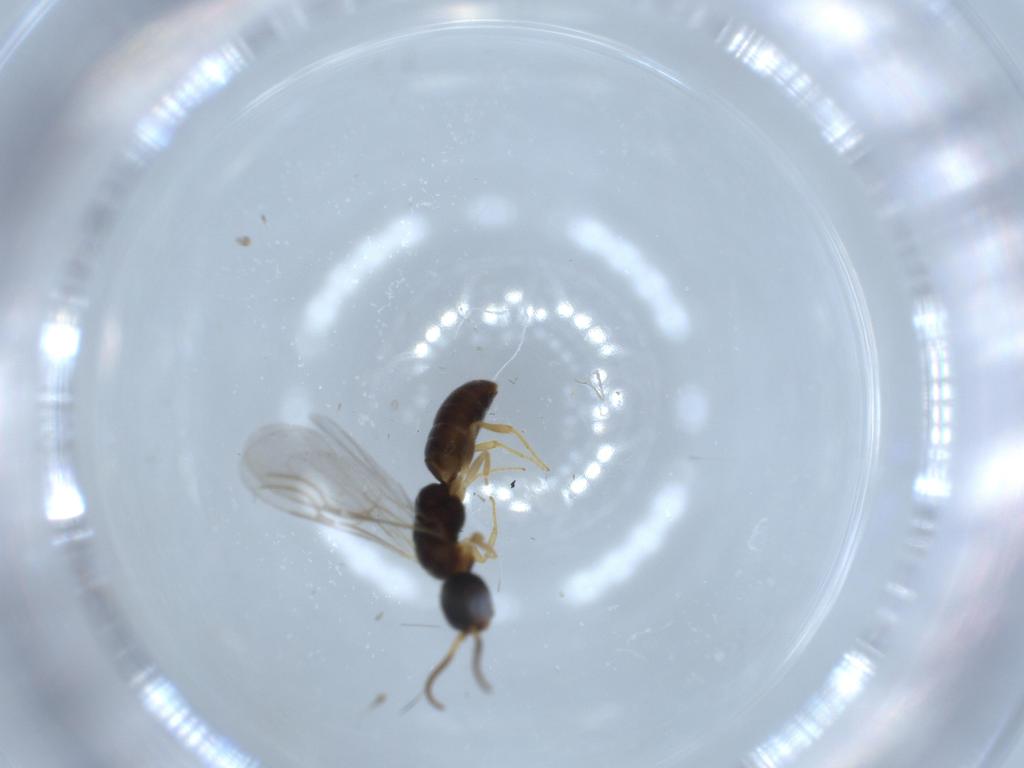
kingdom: Animalia
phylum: Arthropoda
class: Insecta
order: Hymenoptera
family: Bethylidae
